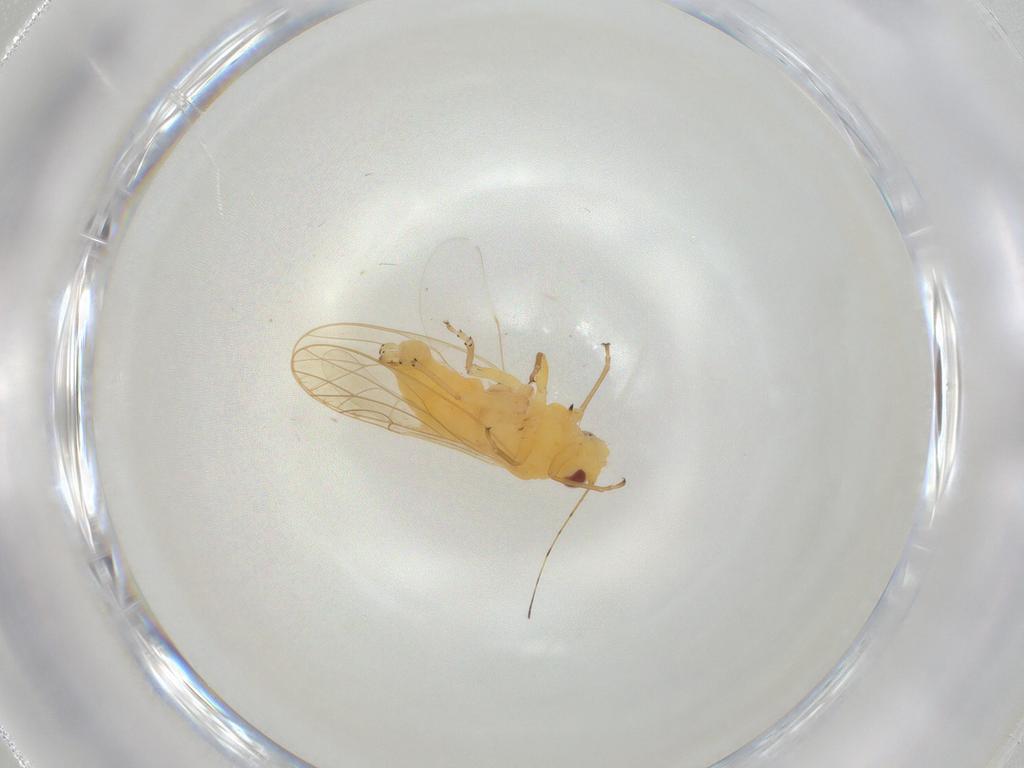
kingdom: Animalia
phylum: Arthropoda
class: Insecta
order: Hemiptera
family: Psyllidae
